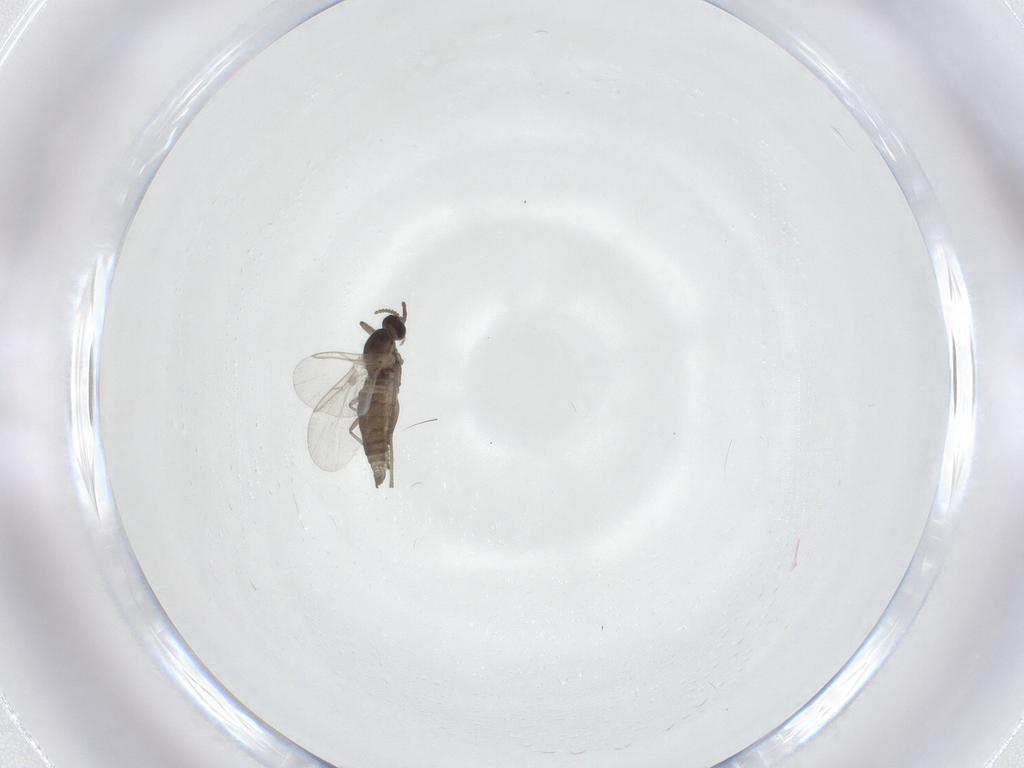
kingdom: Animalia
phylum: Arthropoda
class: Insecta
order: Diptera
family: Cecidomyiidae
